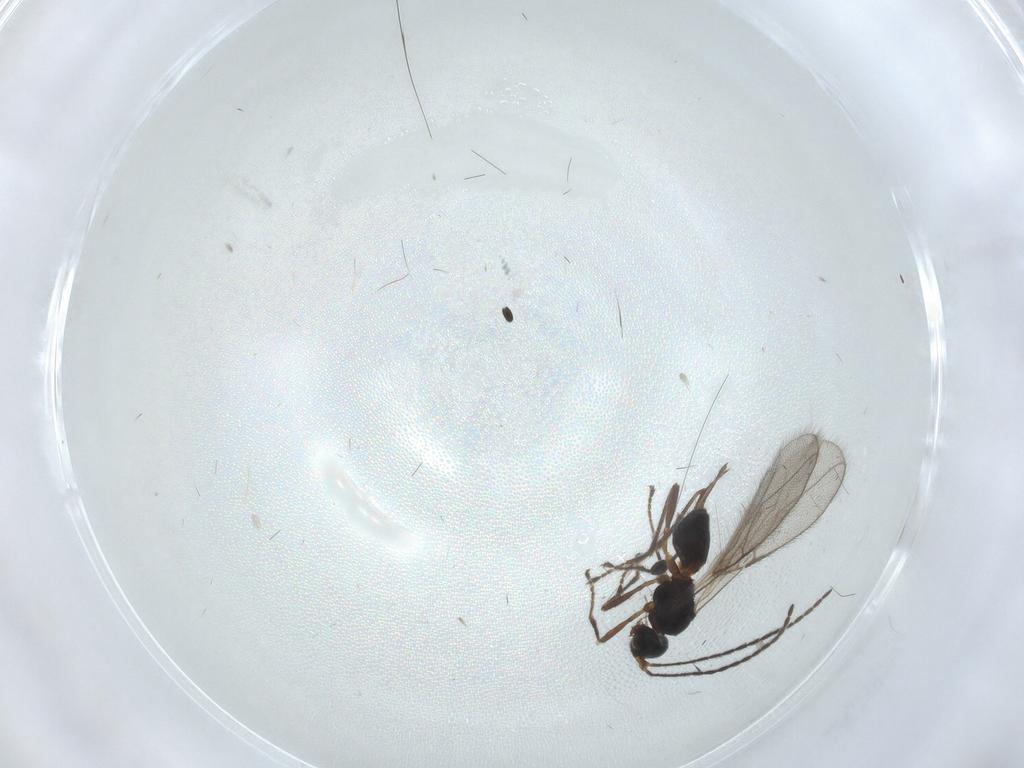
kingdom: Animalia
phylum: Arthropoda
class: Insecta
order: Hymenoptera
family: Braconidae
